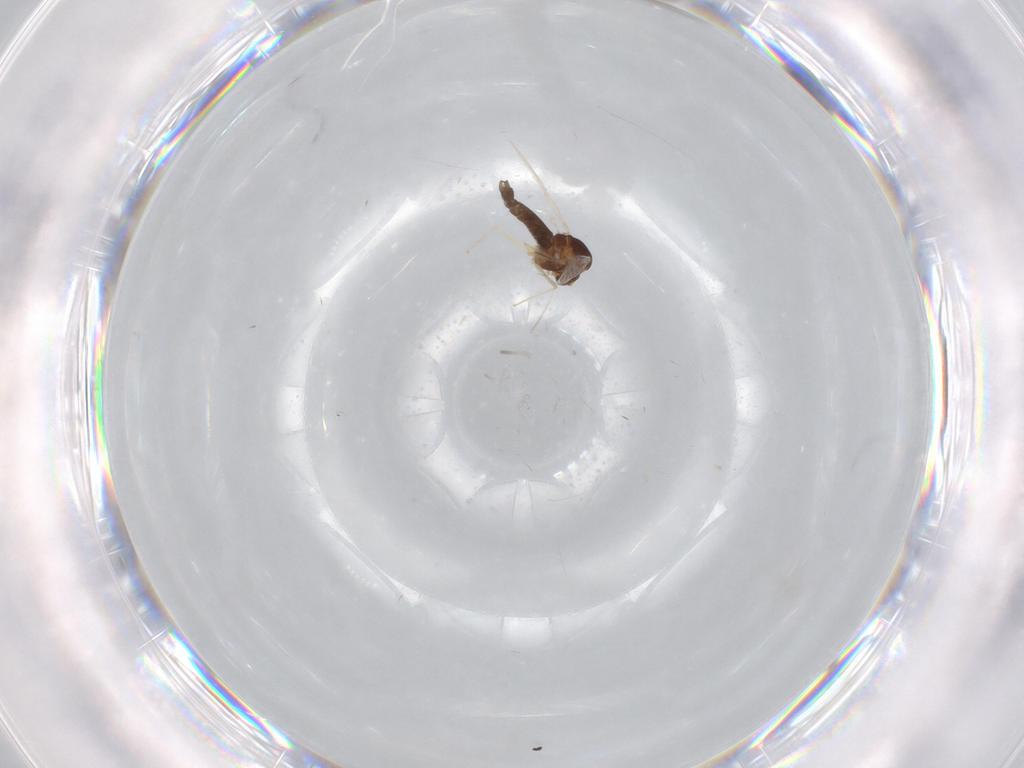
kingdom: Animalia
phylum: Arthropoda
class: Insecta
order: Diptera
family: Chironomidae
